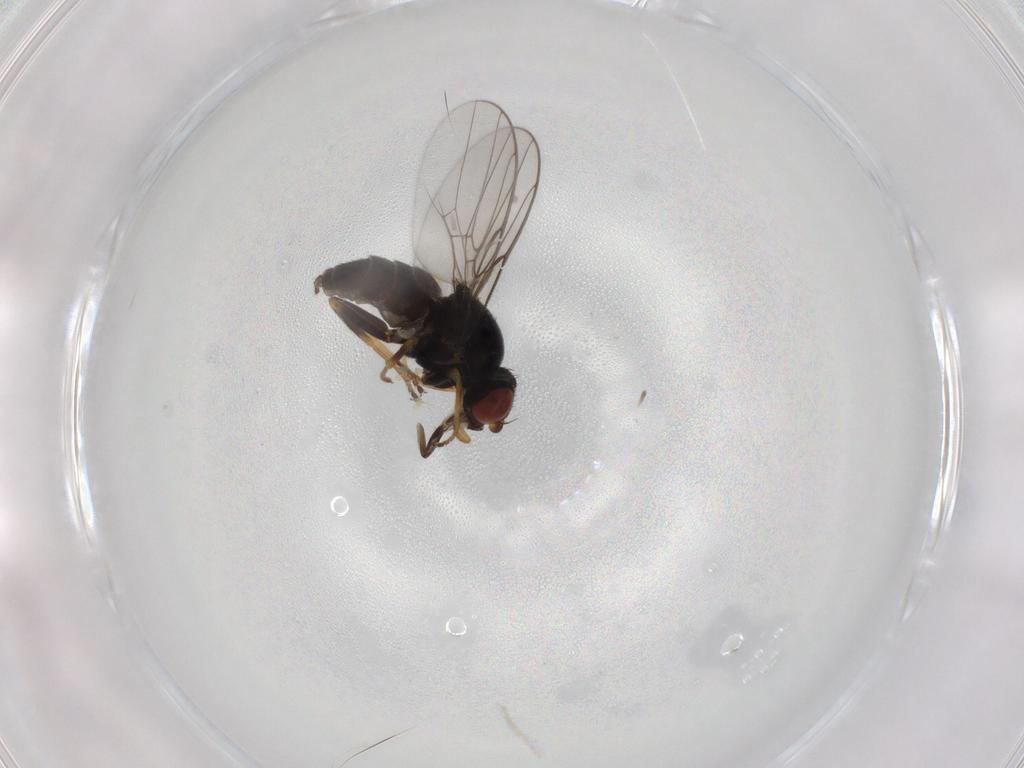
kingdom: Animalia
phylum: Arthropoda
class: Insecta
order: Diptera
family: Chloropidae
